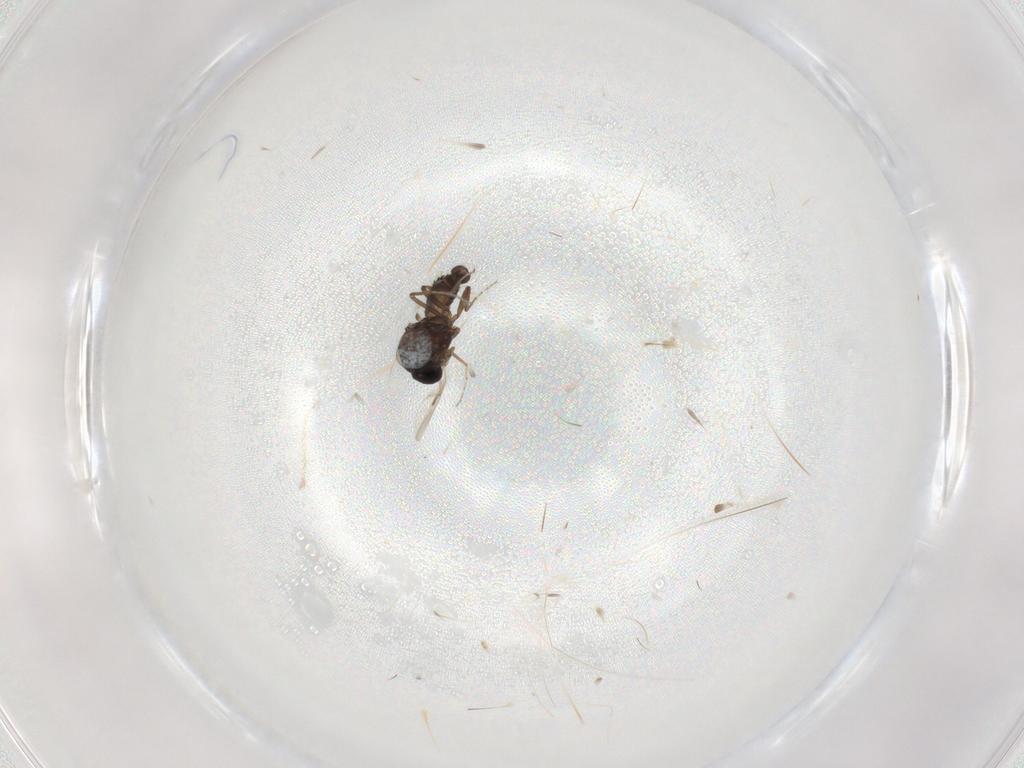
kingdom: Animalia
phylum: Arthropoda
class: Insecta
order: Diptera
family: Ceratopogonidae
